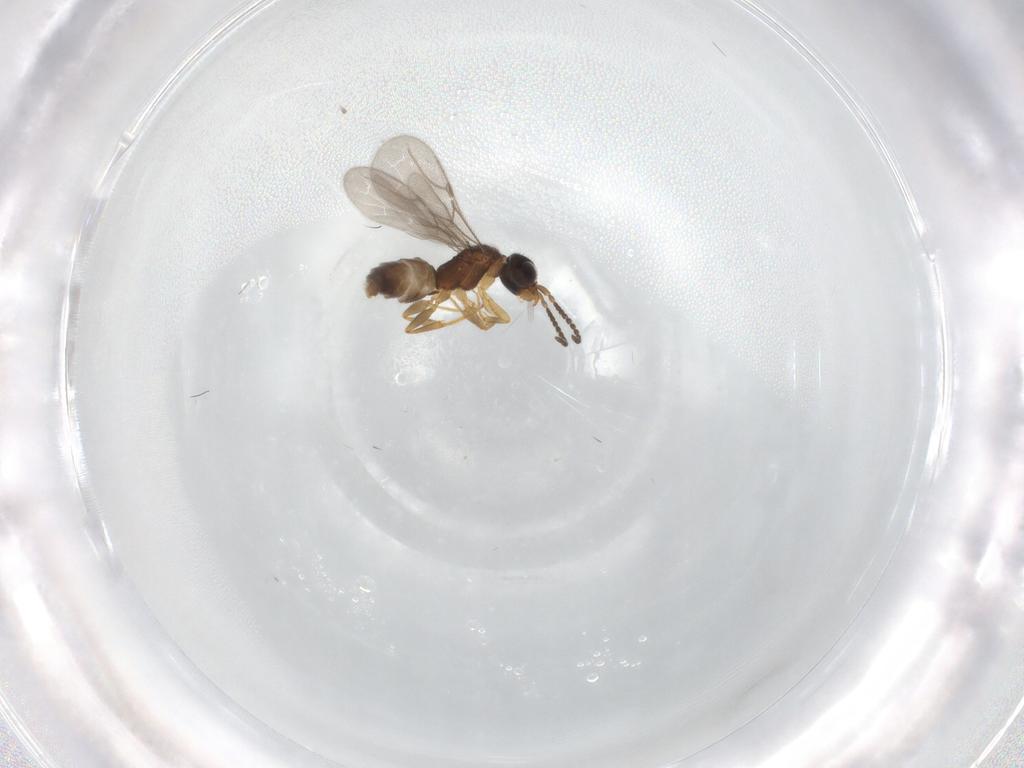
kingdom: Animalia
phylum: Arthropoda
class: Insecta
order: Hymenoptera
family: Bethylidae
